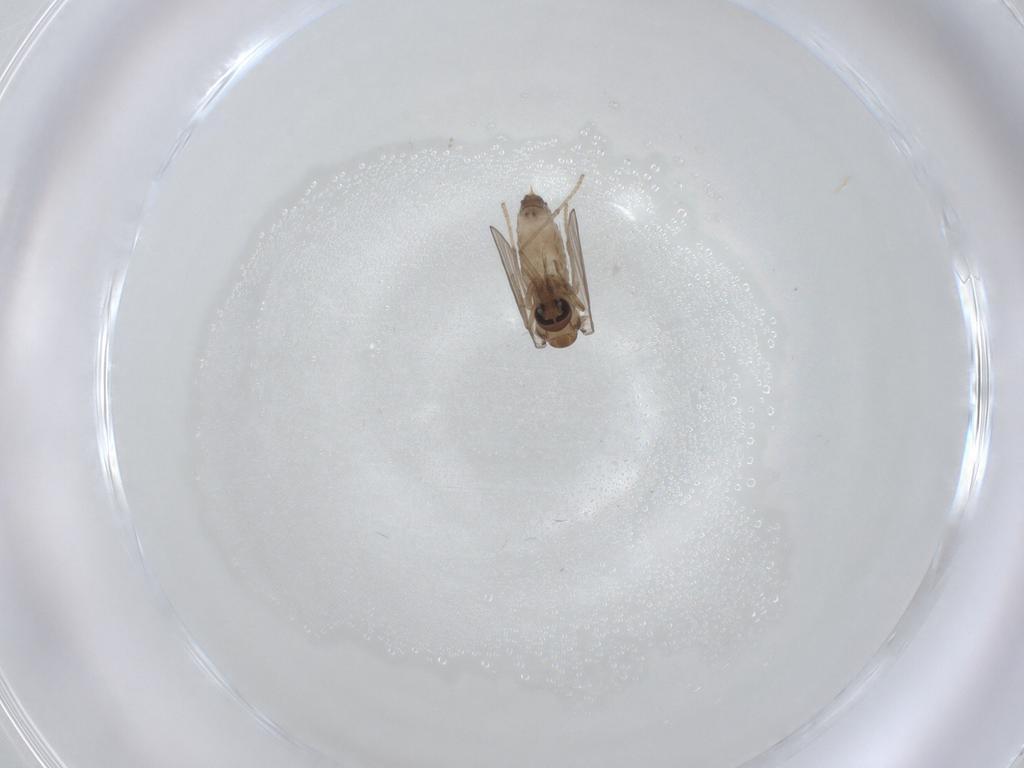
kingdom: Animalia
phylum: Arthropoda
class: Insecta
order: Diptera
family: Psychodidae
